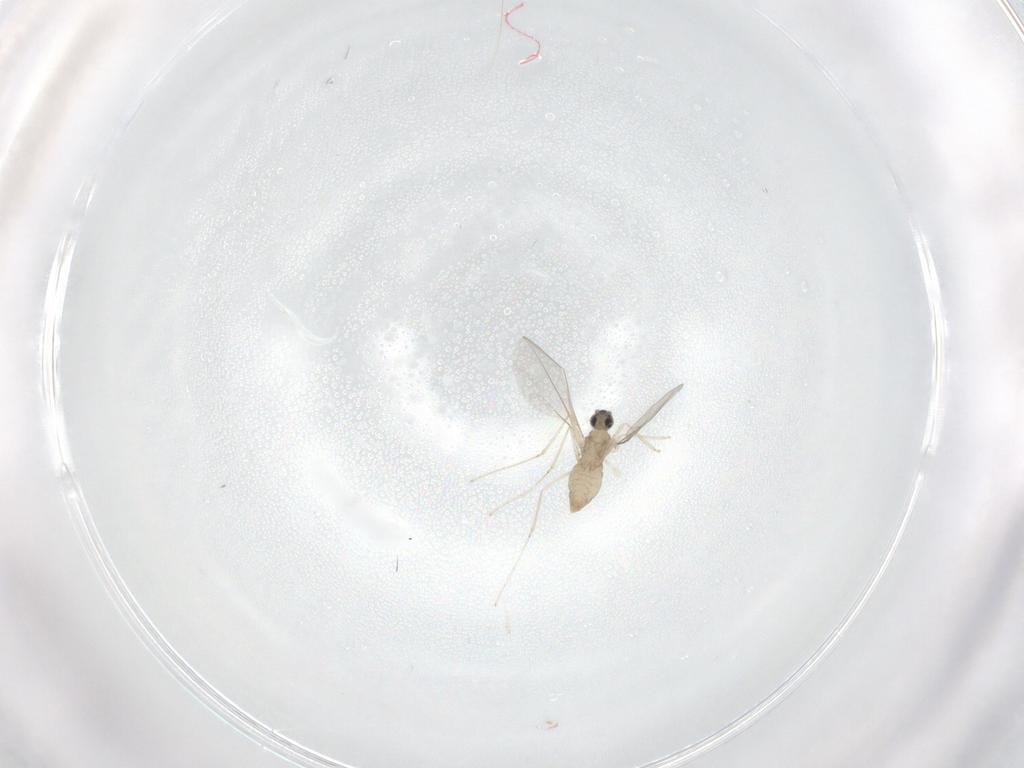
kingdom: Animalia
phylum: Arthropoda
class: Insecta
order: Diptera
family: Cecidomyiidae
